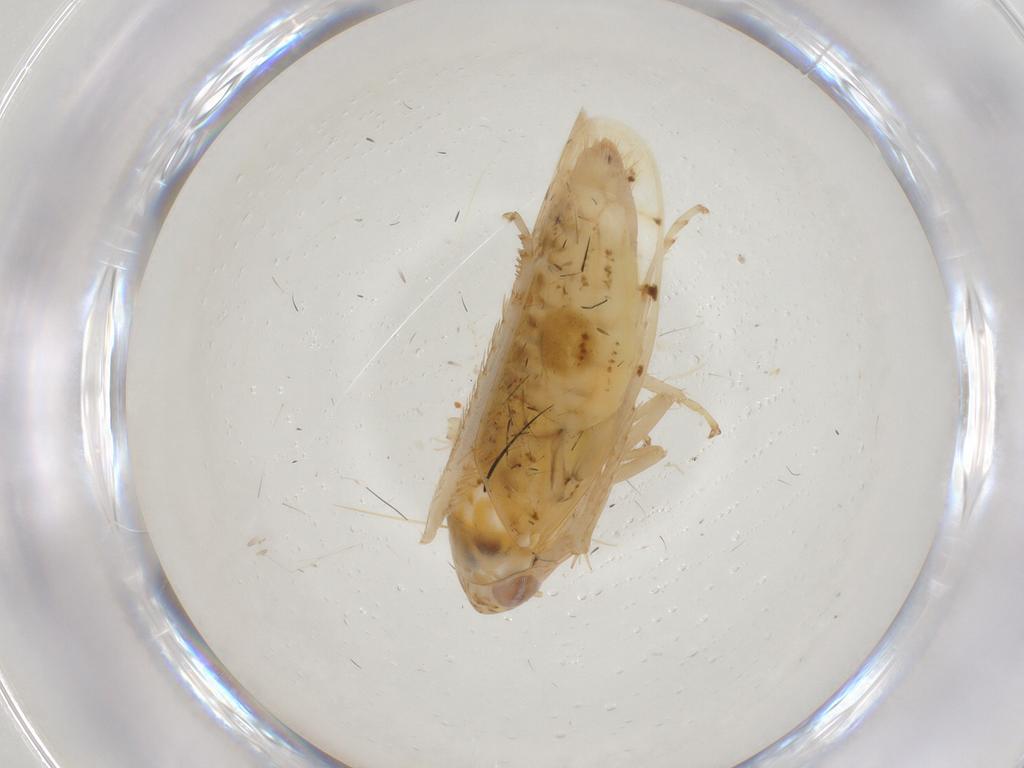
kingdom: Animalia
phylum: Arthropoda
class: Insecta
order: Hemiptera
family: Cicadellidae
